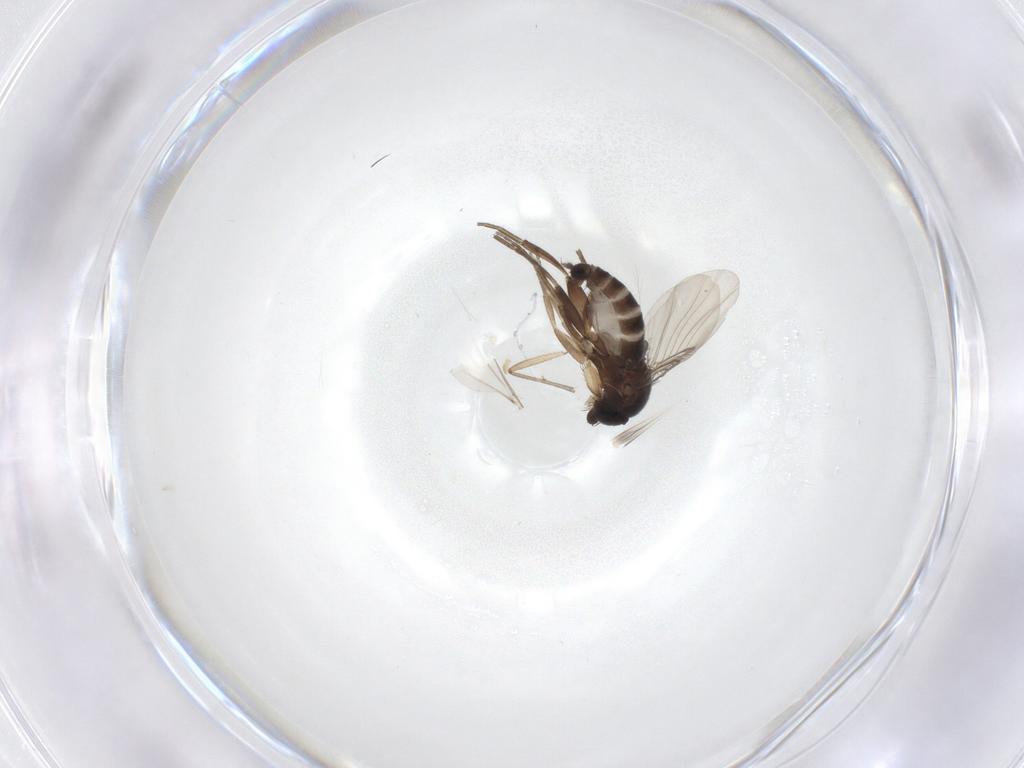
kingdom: Animalia
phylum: Arthropoda
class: Insecta
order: Diptera
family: Phoridae
